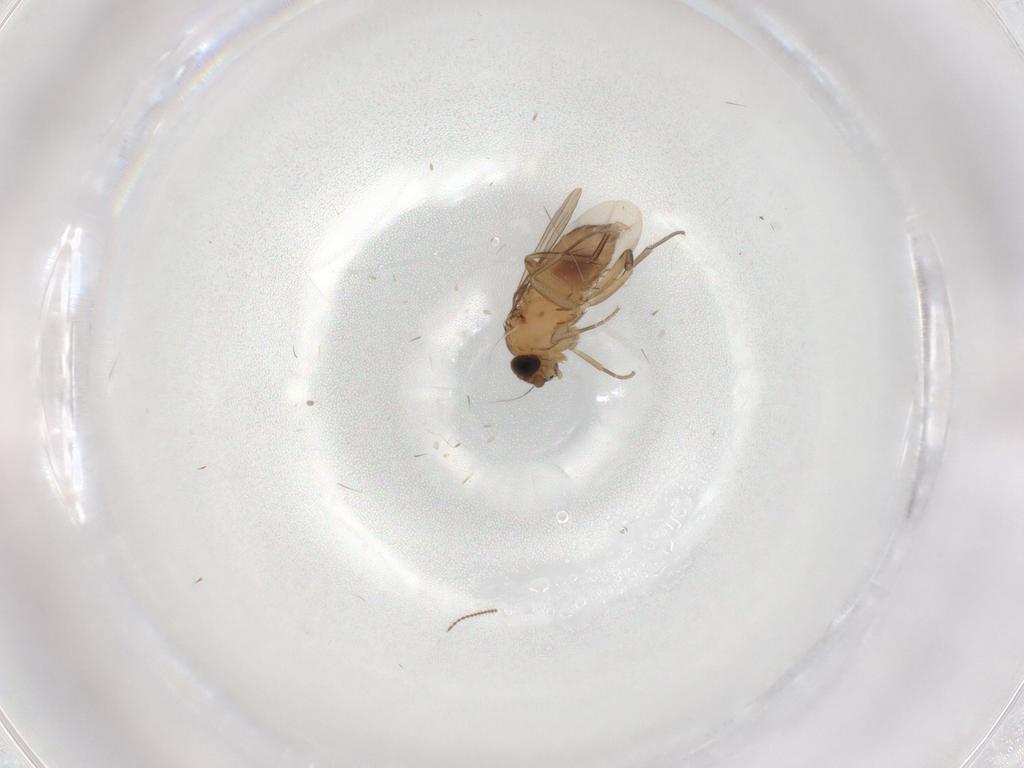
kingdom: Animalia
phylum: Arthropoda
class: Insecta
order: Diptera
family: Phoridae
